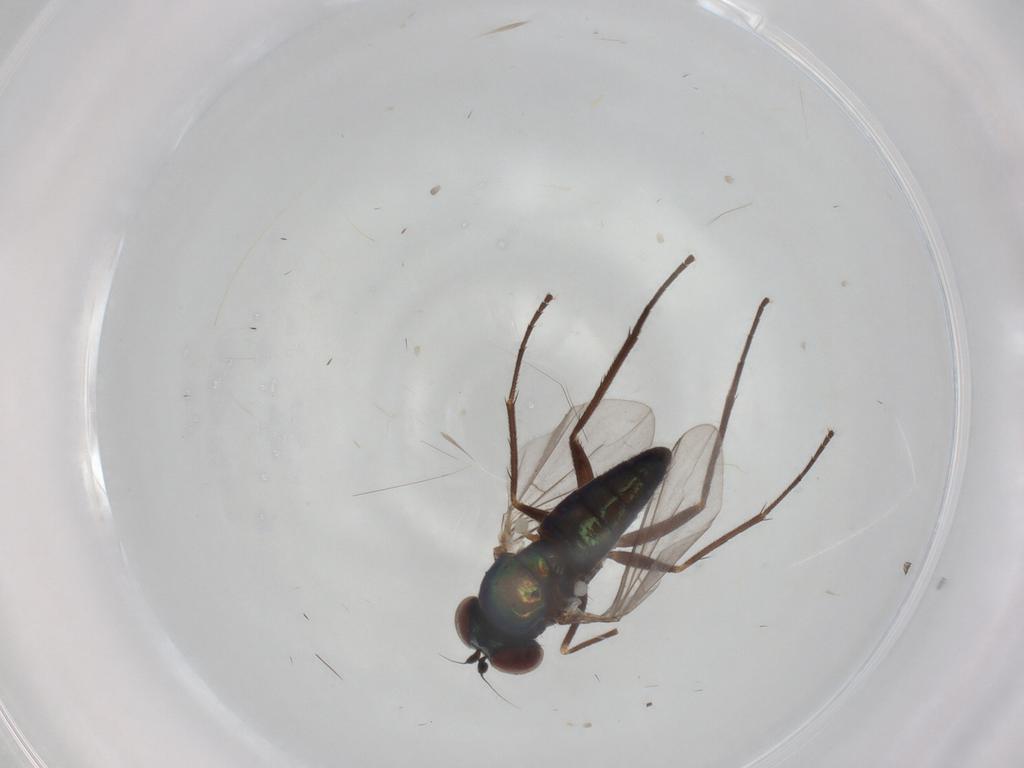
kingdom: Animalia
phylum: Arthropoda
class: Insecta
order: Diptera
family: Dolichopodidae
